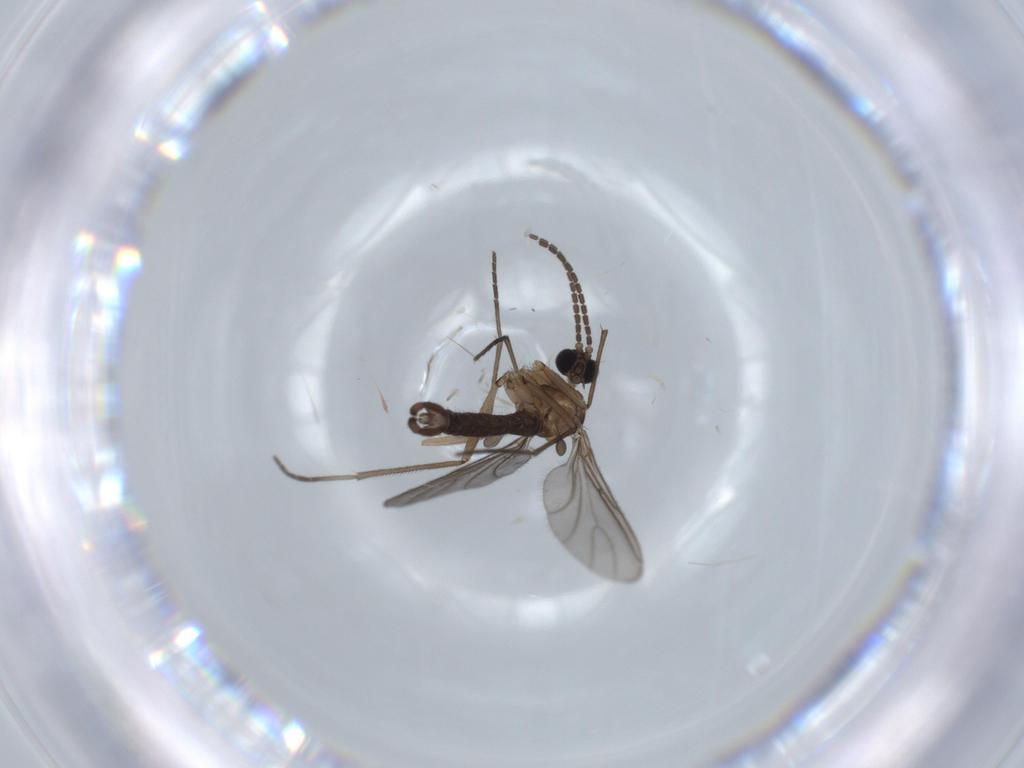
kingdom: Animalia
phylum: Arthropoda
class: Insecta
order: Diptera
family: Sciaridae
